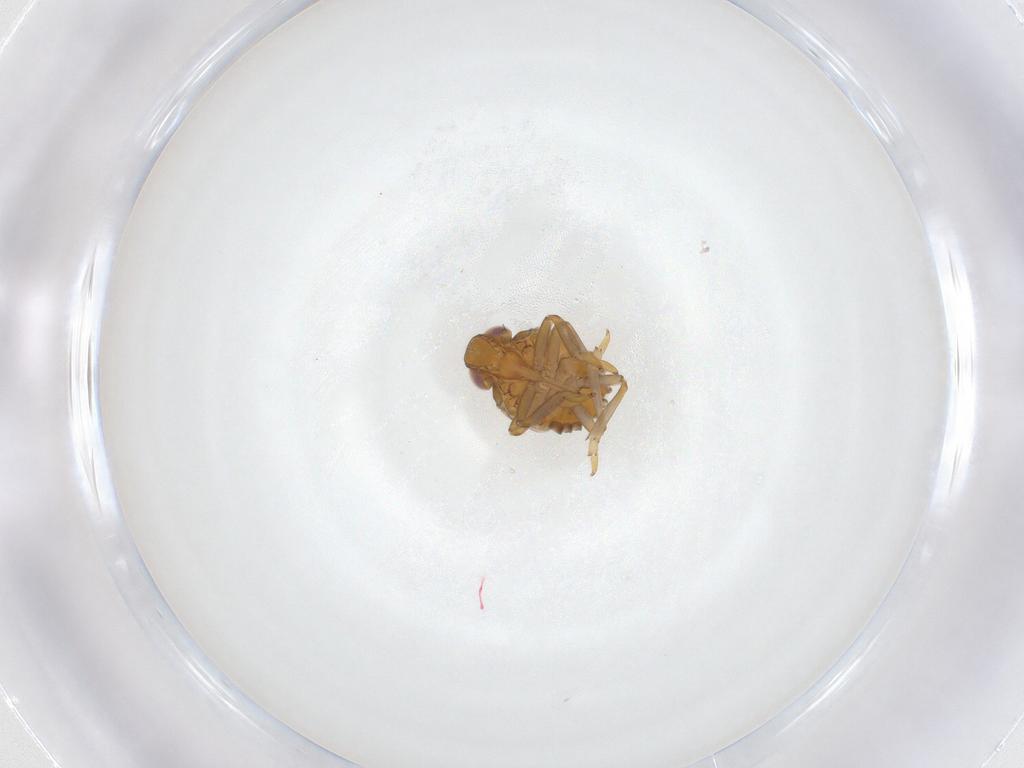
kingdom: Animalia
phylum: Arthropoda
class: Insecta
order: Hemiptera
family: Issidae
